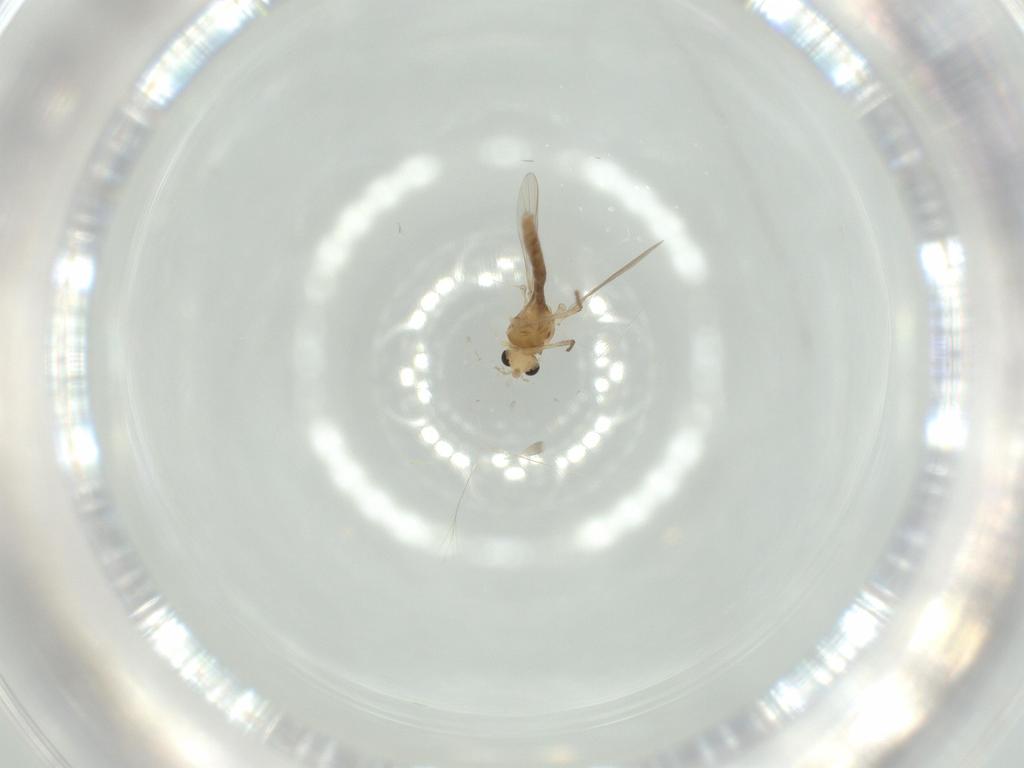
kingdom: Animalia
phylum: Arthropoda
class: Insecta
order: Diptera
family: Chironomidae
